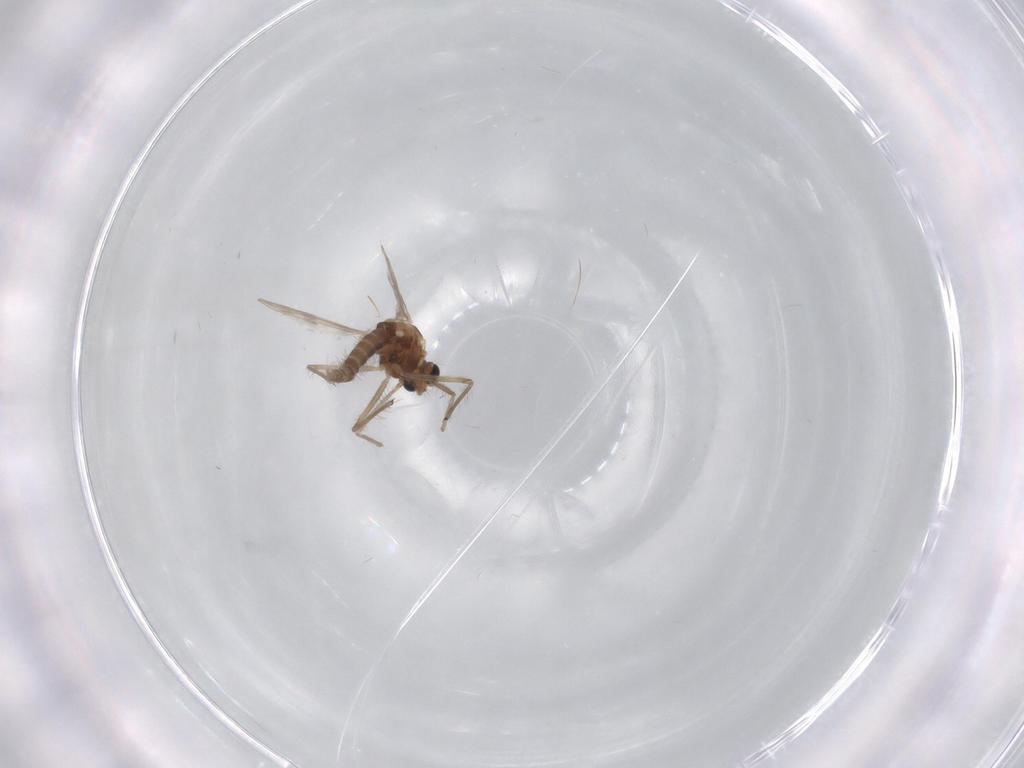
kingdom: Animalia
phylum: Arthropoda
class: Insecta
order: Diptera
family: Chironomidae
